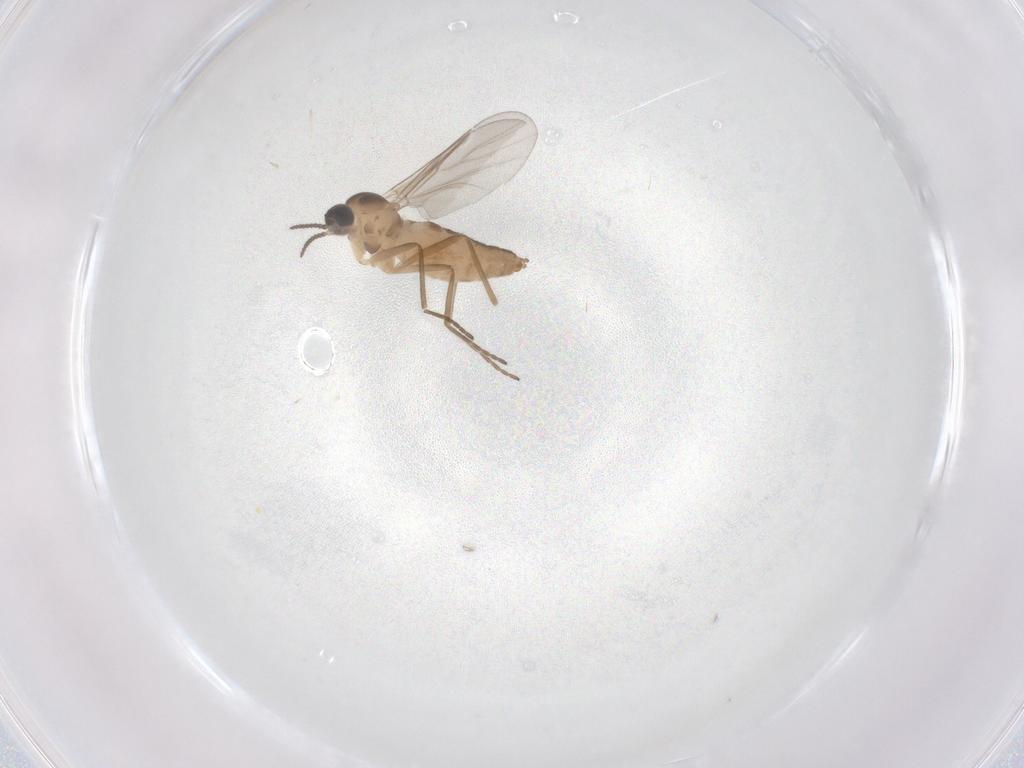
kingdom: Animalia
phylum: Arthropoda
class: Insecta
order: Diptera
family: Cecidomyiidae
